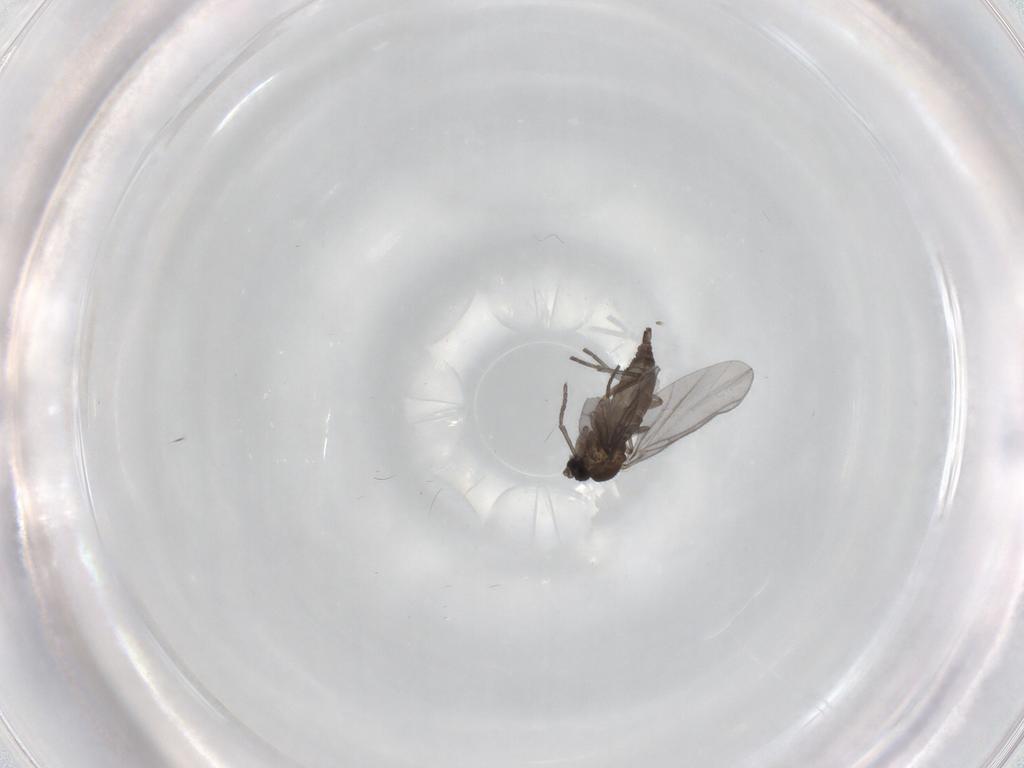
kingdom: Animalia
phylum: Arthropoda
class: Insecta
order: Diptera
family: Sciaridae
